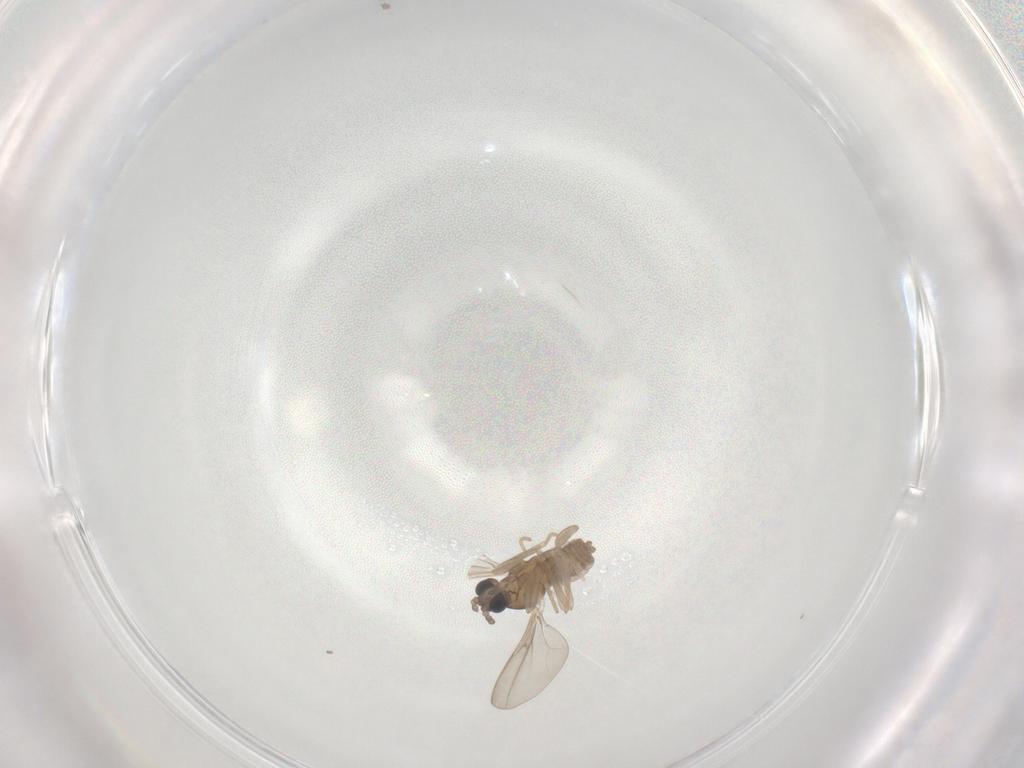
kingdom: Animalia
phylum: Arthropoda
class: Insecta
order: Diptera
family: Cecidomyiidae
